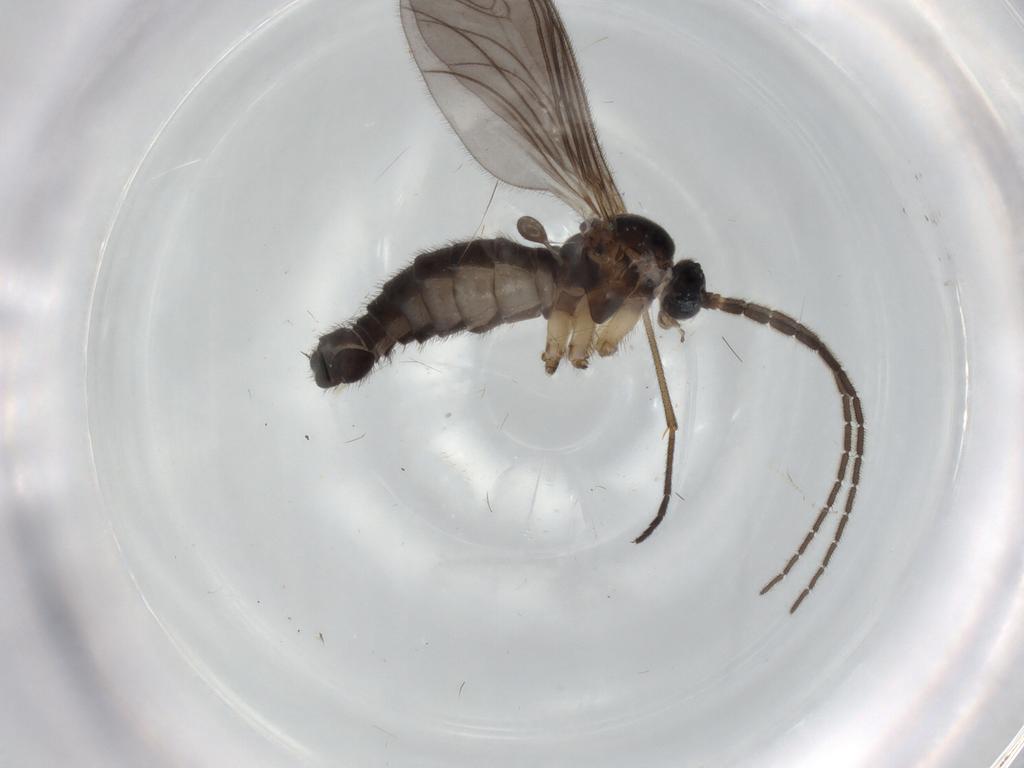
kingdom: Animalia
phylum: Arthropoda
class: Insecta
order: Diptera
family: Sciaridae
